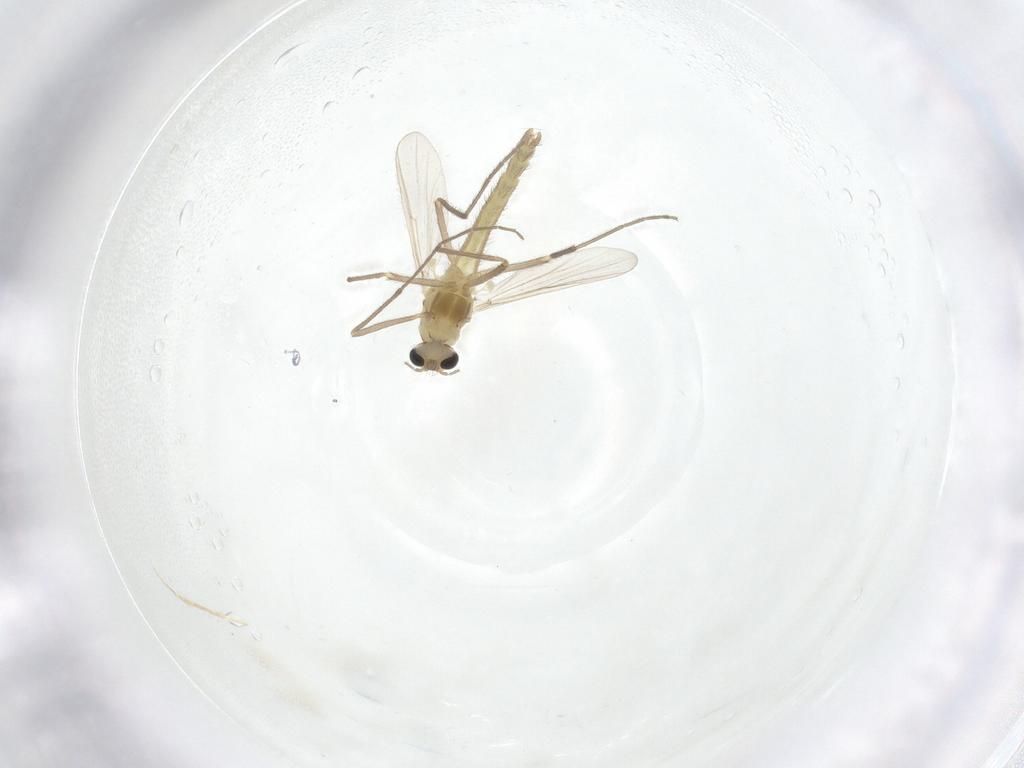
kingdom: Animalia
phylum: Arthropoda
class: Insecta
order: Diptera
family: Chironomidae
